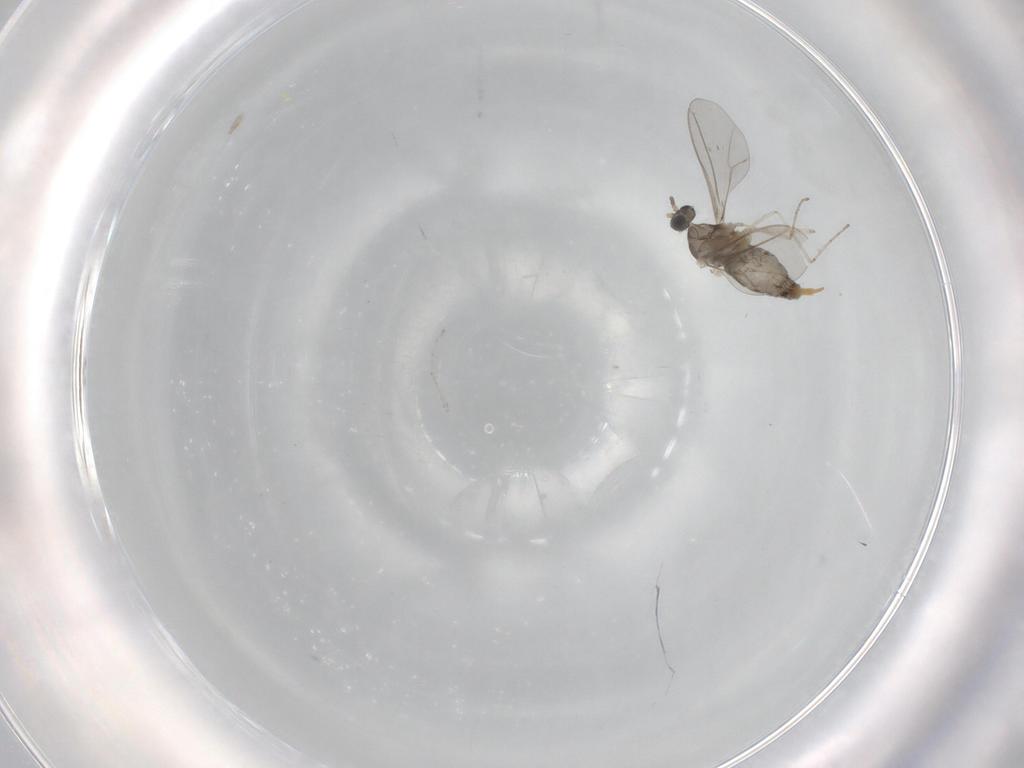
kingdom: Animalia
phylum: Arthropoda
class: Insecta
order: Diptera
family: Cecidomyiidae
